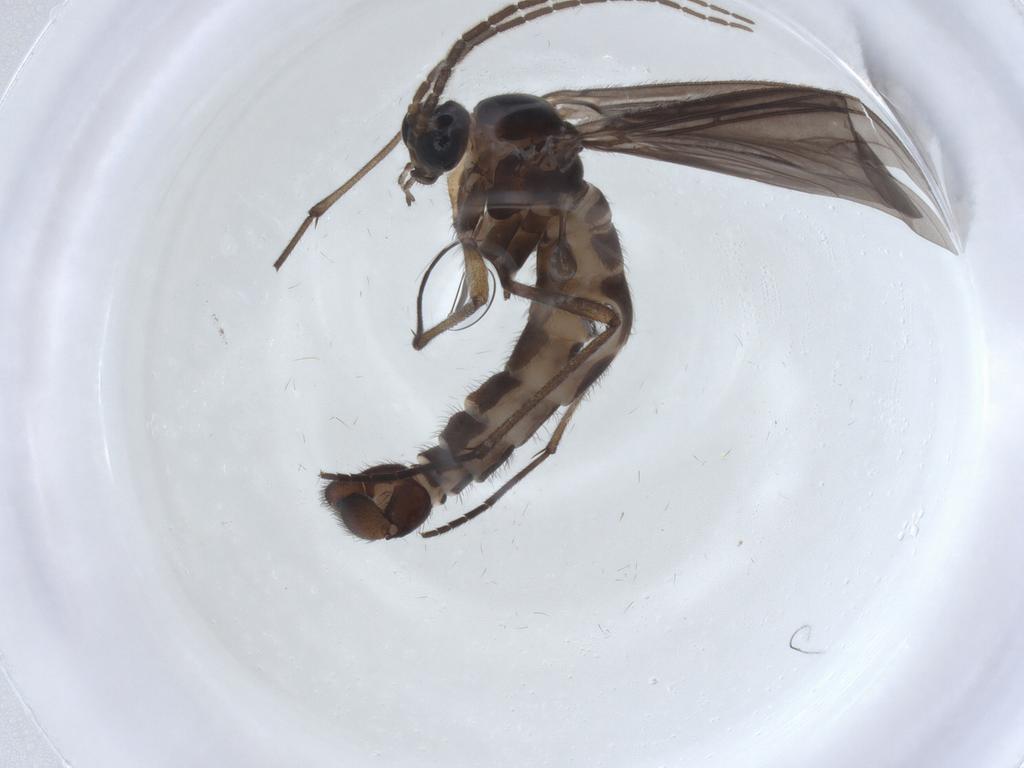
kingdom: Animalia
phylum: Arthropoda
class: Insecta
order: Diptera
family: Sciaridae
